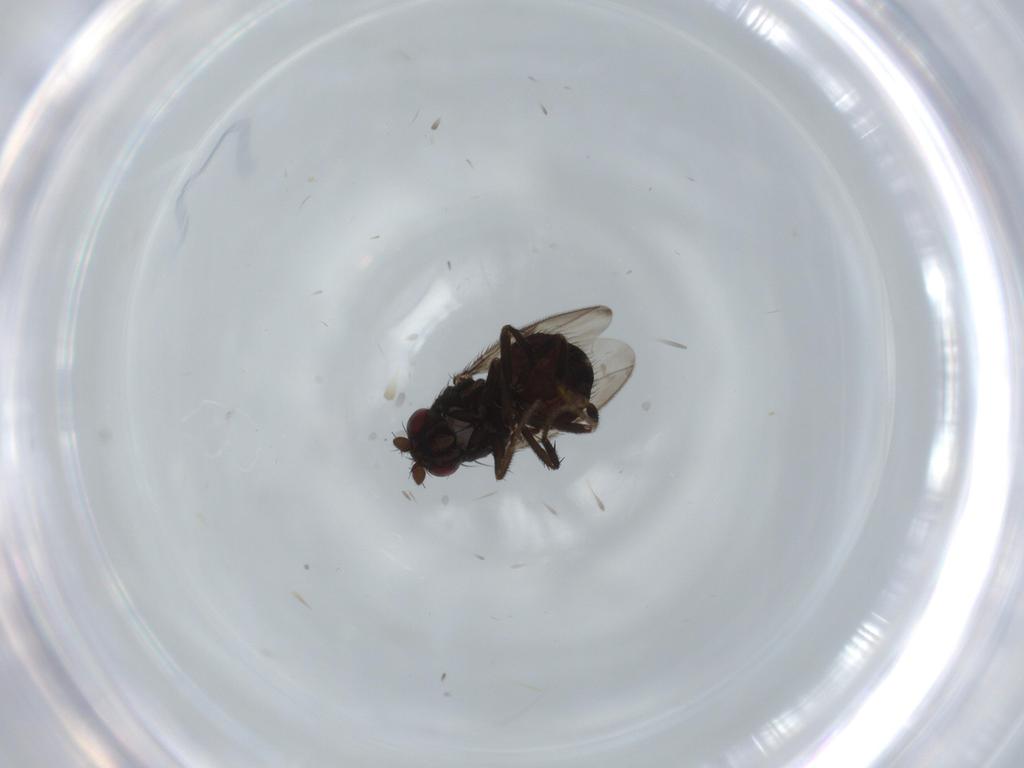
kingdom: Animalia
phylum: Arthropoda
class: Insecta
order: Diptera
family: Sphaeroceridae
